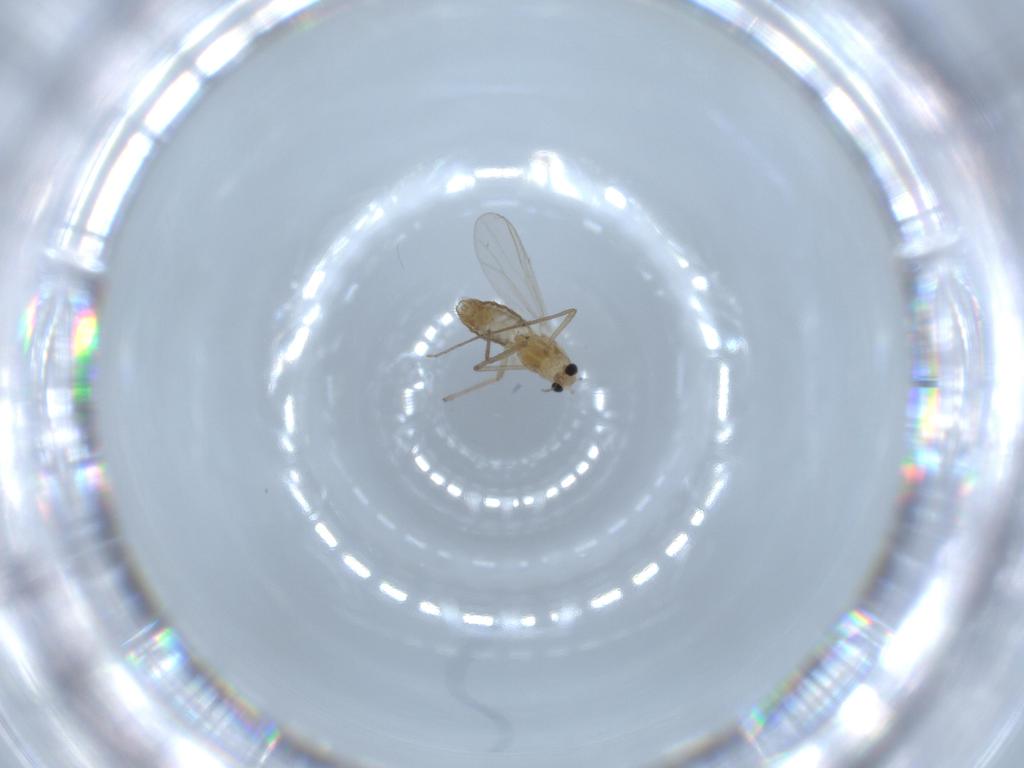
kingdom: Animalia
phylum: Arthropoda
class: Insecta
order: Diptera
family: Chironomidae
